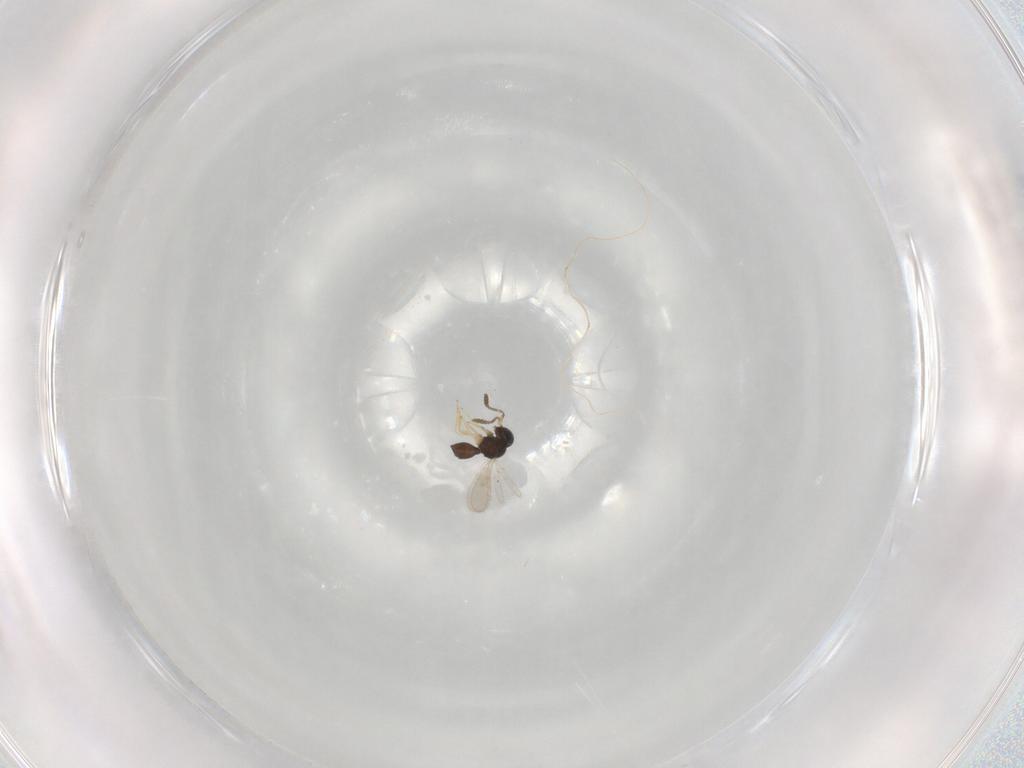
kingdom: Animalia
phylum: Arthropoda
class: Insecta
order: Hymenoptera
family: Scelionidae
